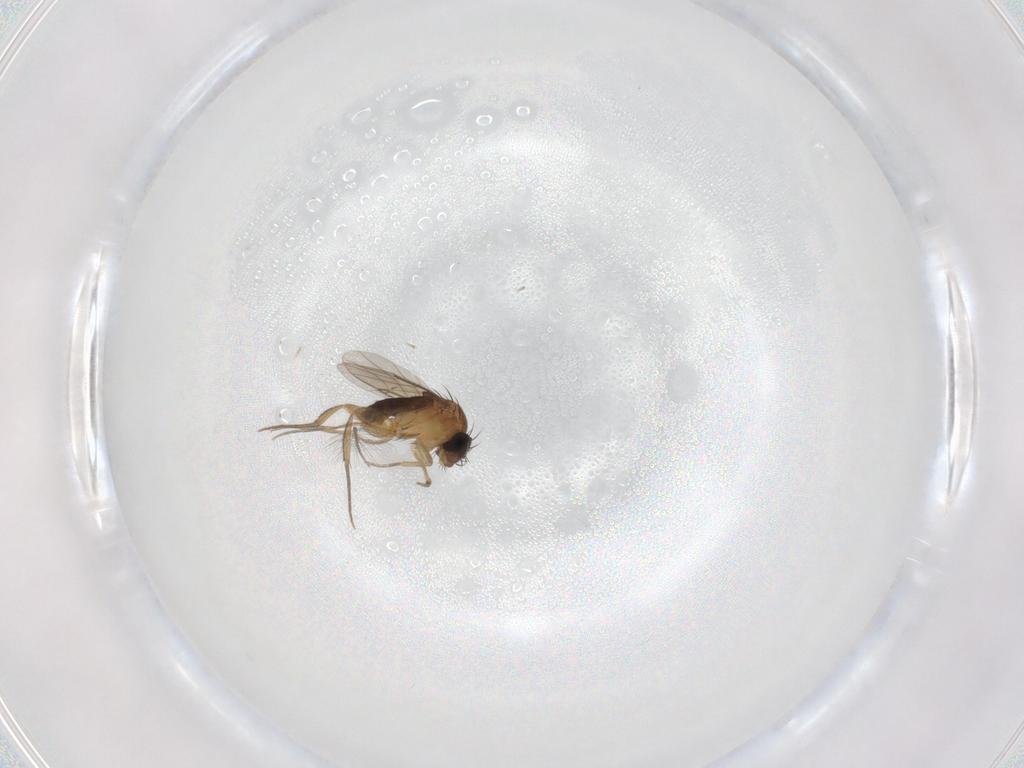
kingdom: Animalia
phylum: Arthropoda
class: Insecta
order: Diptera
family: Phoridae
